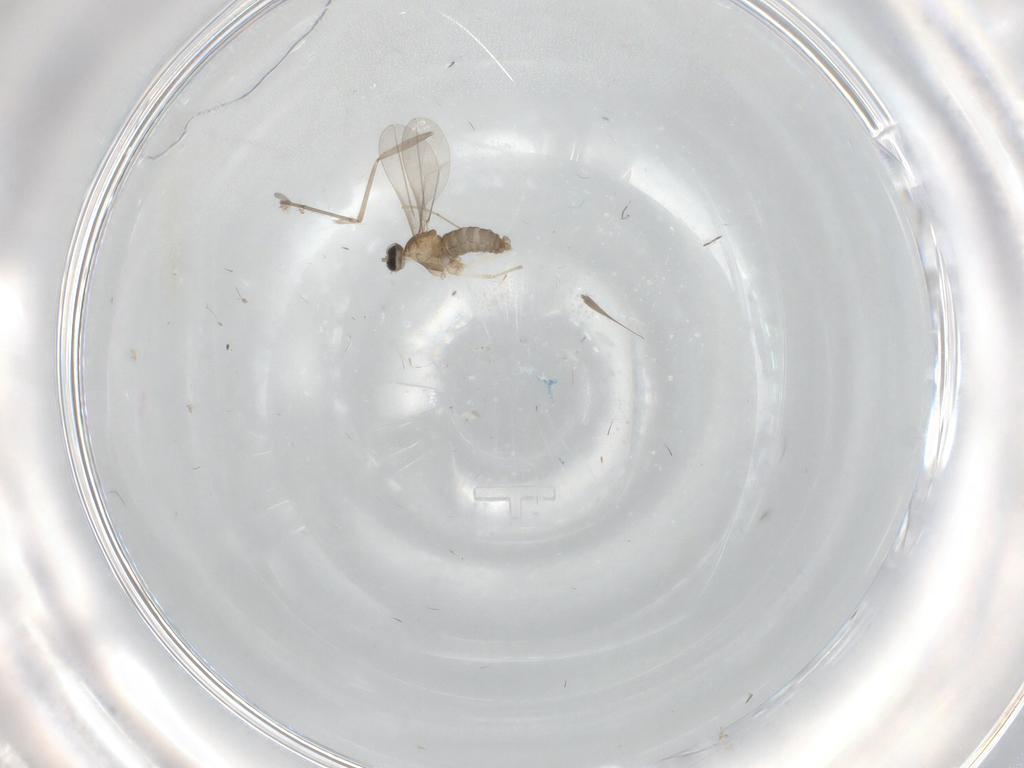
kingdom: Animalia
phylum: Arthropoda
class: Insecta
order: Diptera
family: Cecidomyiidae
